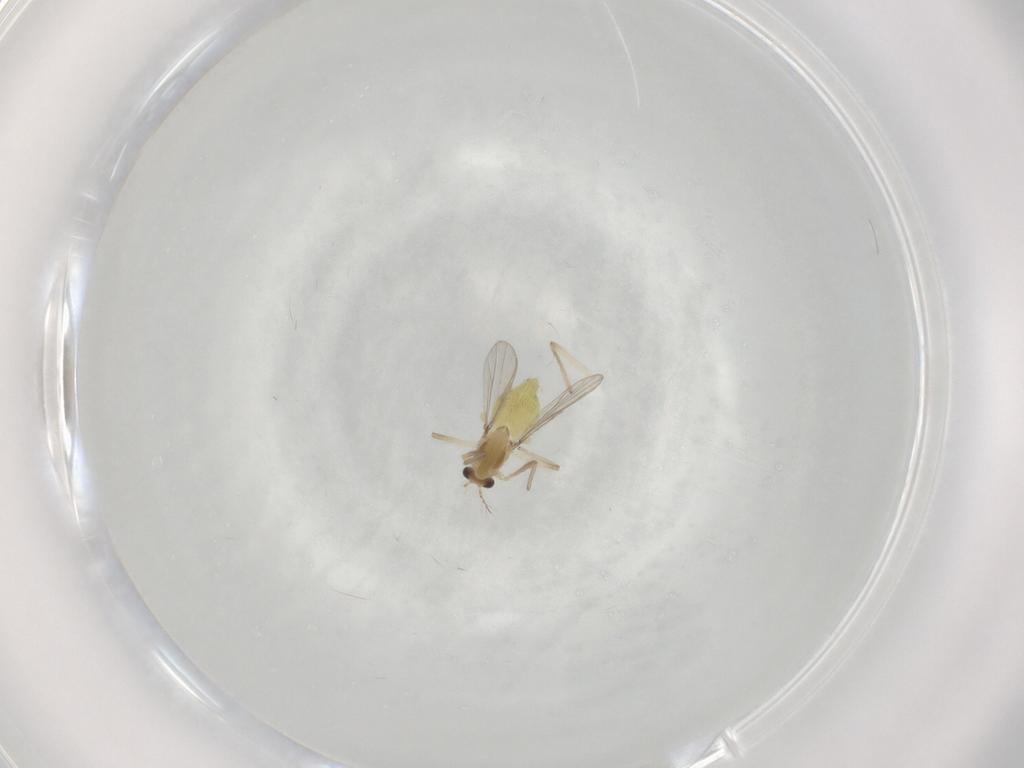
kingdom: Animalia
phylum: Arthropoda
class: Insecta
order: Diptera
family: Chironomidae
